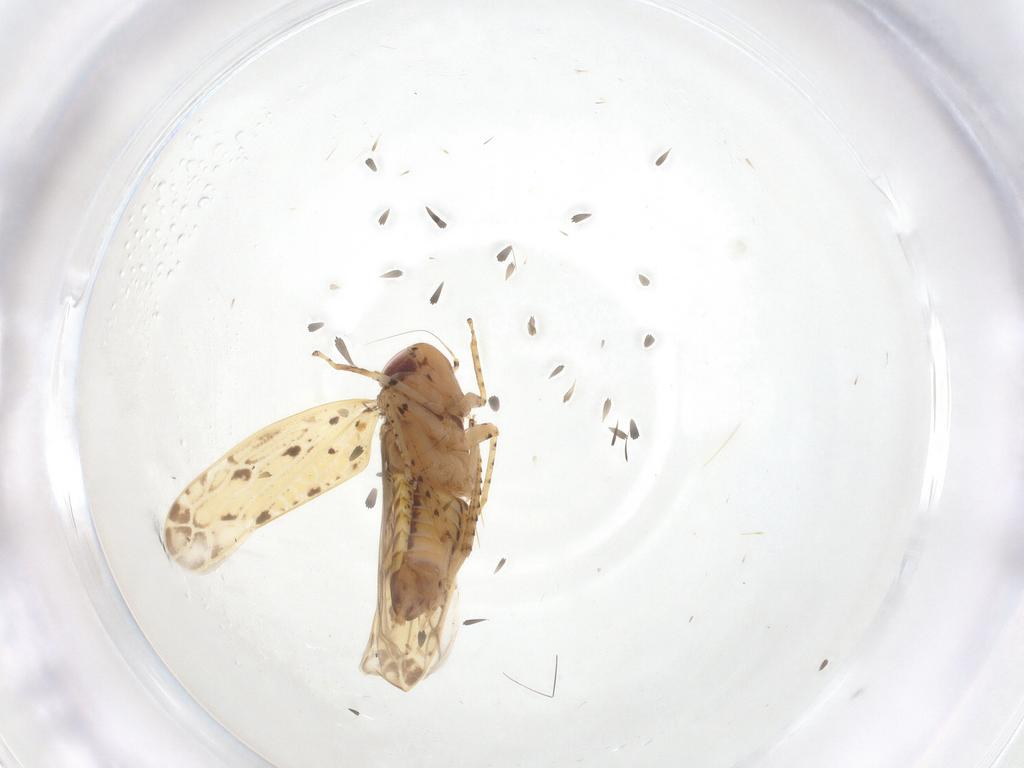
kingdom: Animalia
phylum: Arthropoda
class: Insecta
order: Hemiptera
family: Cicadellidae
